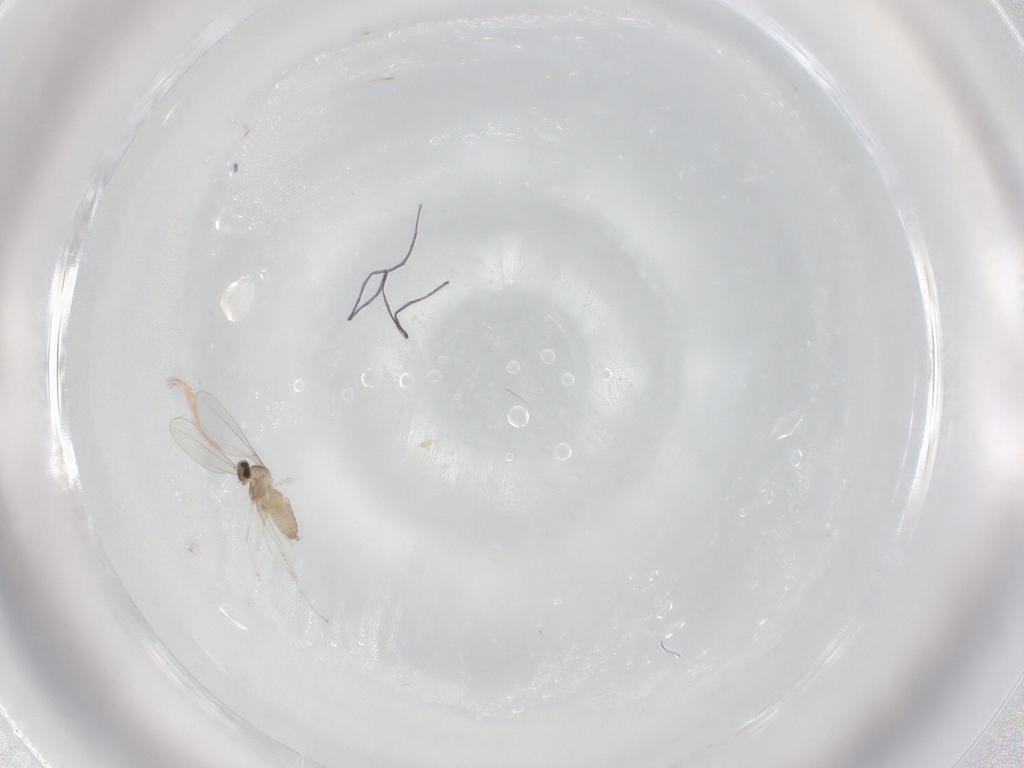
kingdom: Animalia
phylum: Arthropoda
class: Insecta
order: Diptera
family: Cecidomyiidae
